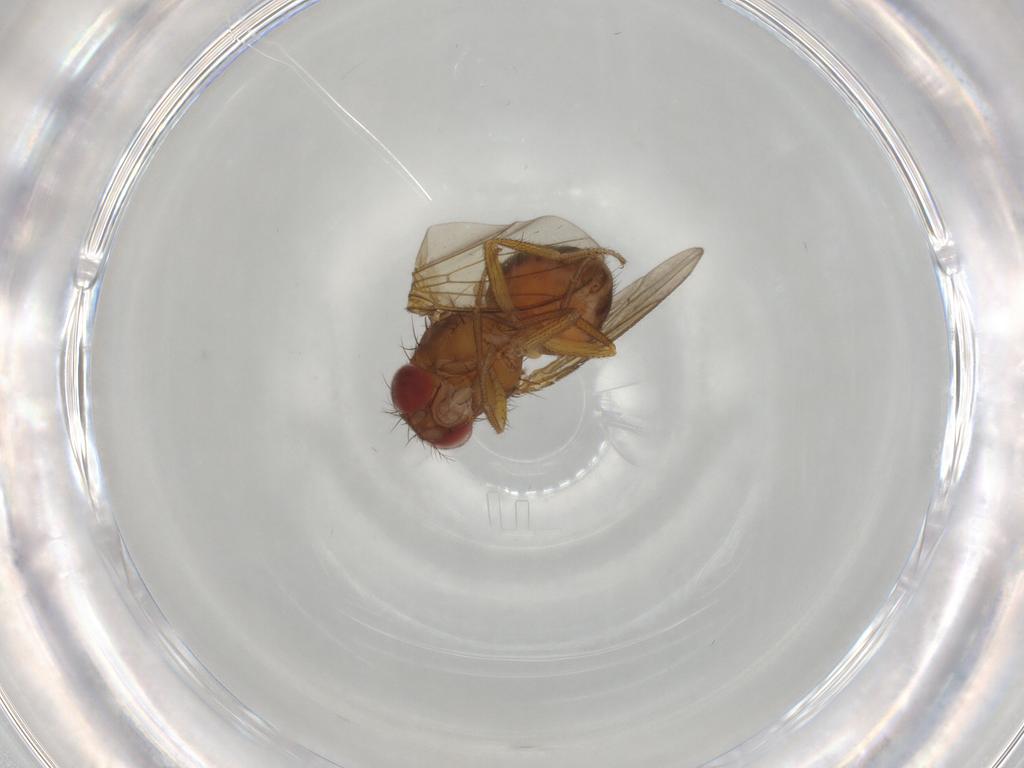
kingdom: Animalia
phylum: Arthropoda
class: Insecta
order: Diptera
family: Drosophilidae
